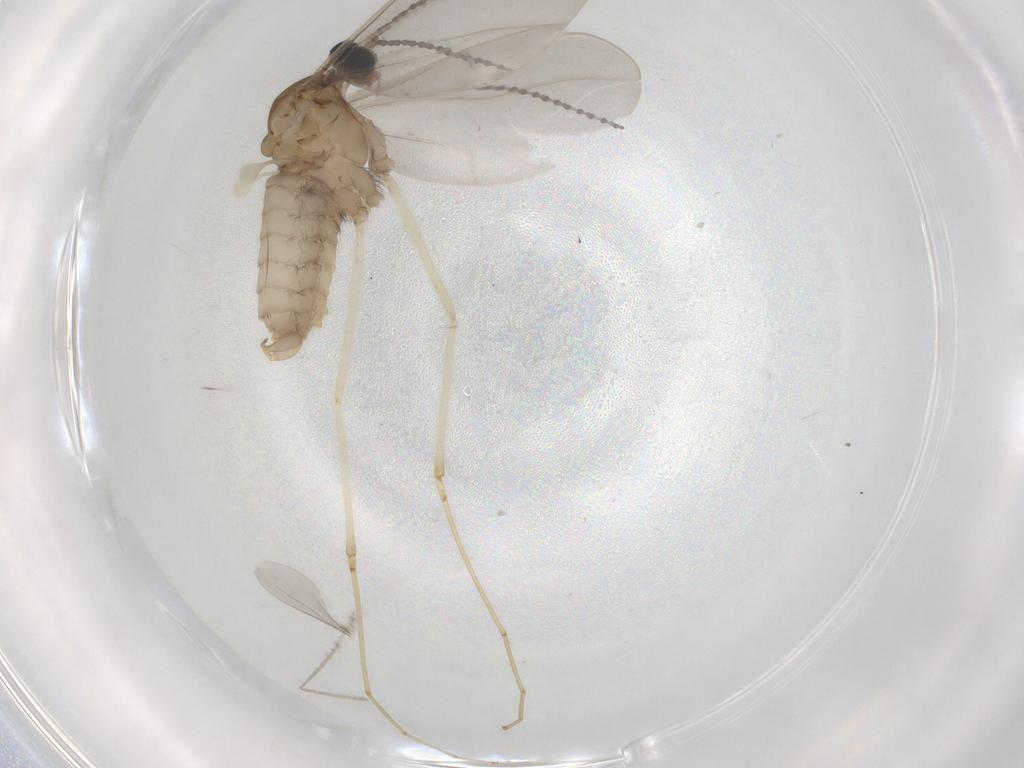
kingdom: Animalia
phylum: Arthropoda
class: Insecta
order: Diptera
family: Cecidomyiidae
